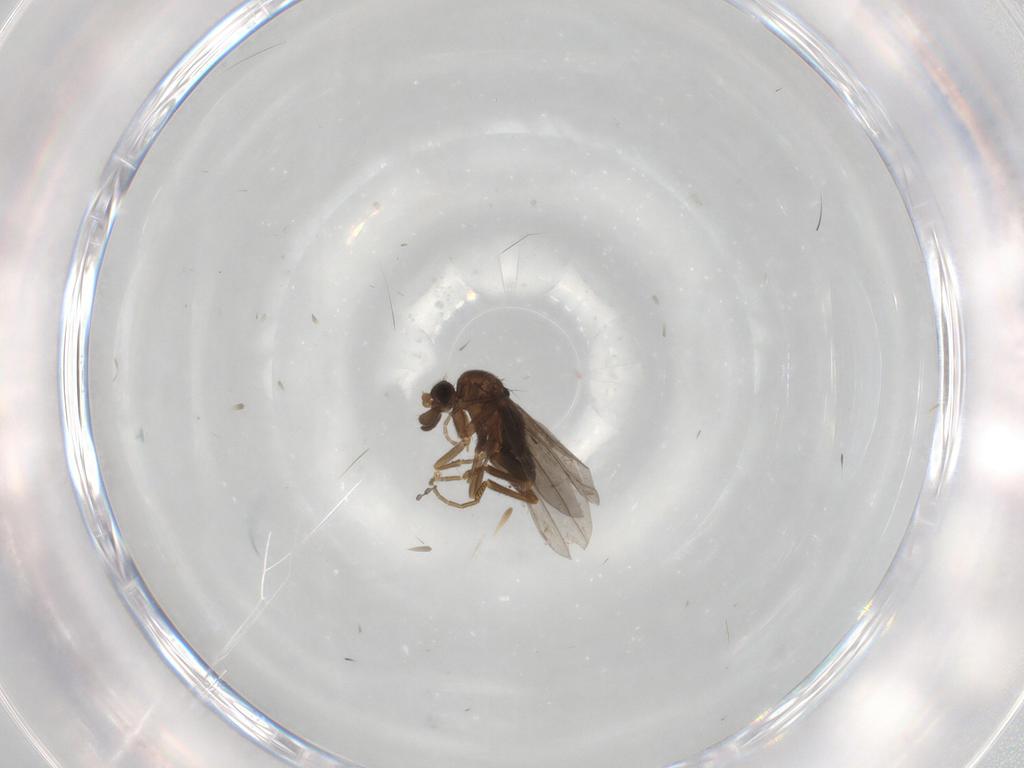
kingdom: Animalia
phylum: Arthropoda
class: Insecta
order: Diptera
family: Phoridae
